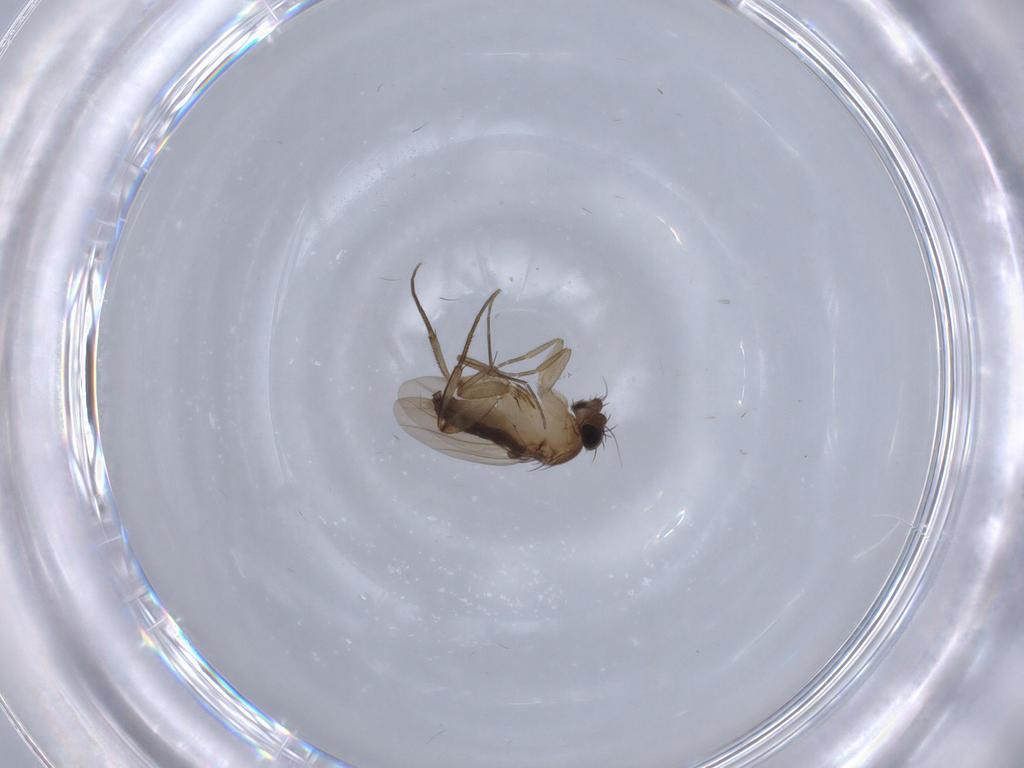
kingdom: Animalia
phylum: Arthropoda
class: Insecta
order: Diptera
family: Phoridae
